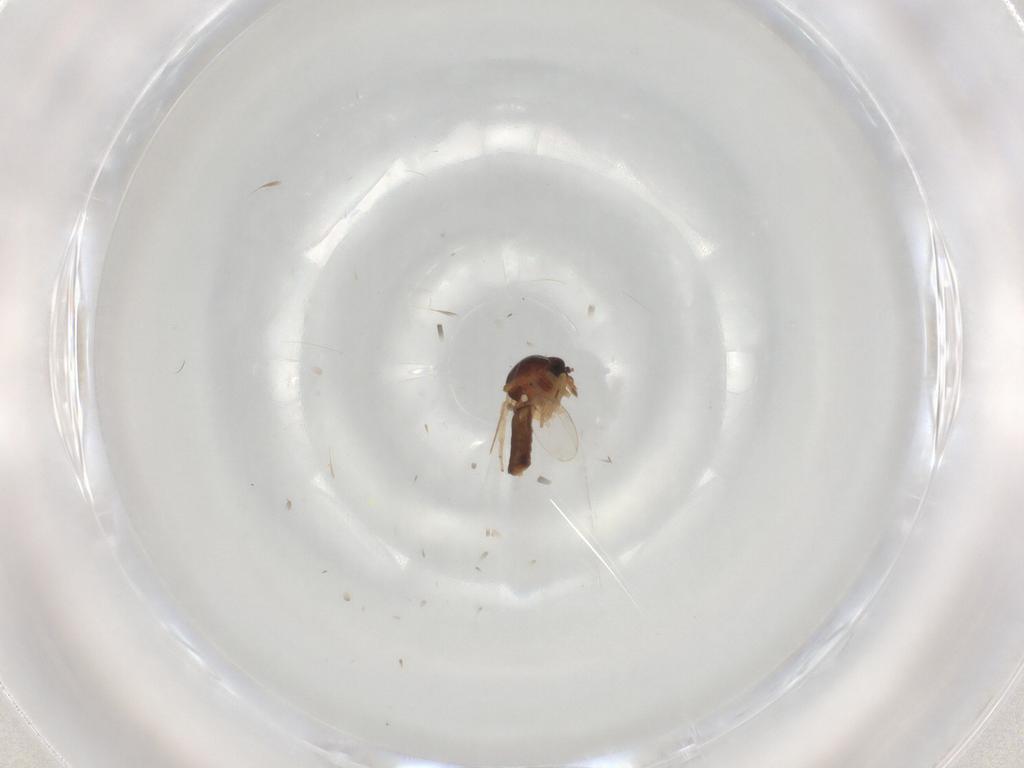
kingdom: Animalia
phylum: Arthropoda
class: Insecta
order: Diptera
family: Ceratopogonidae
